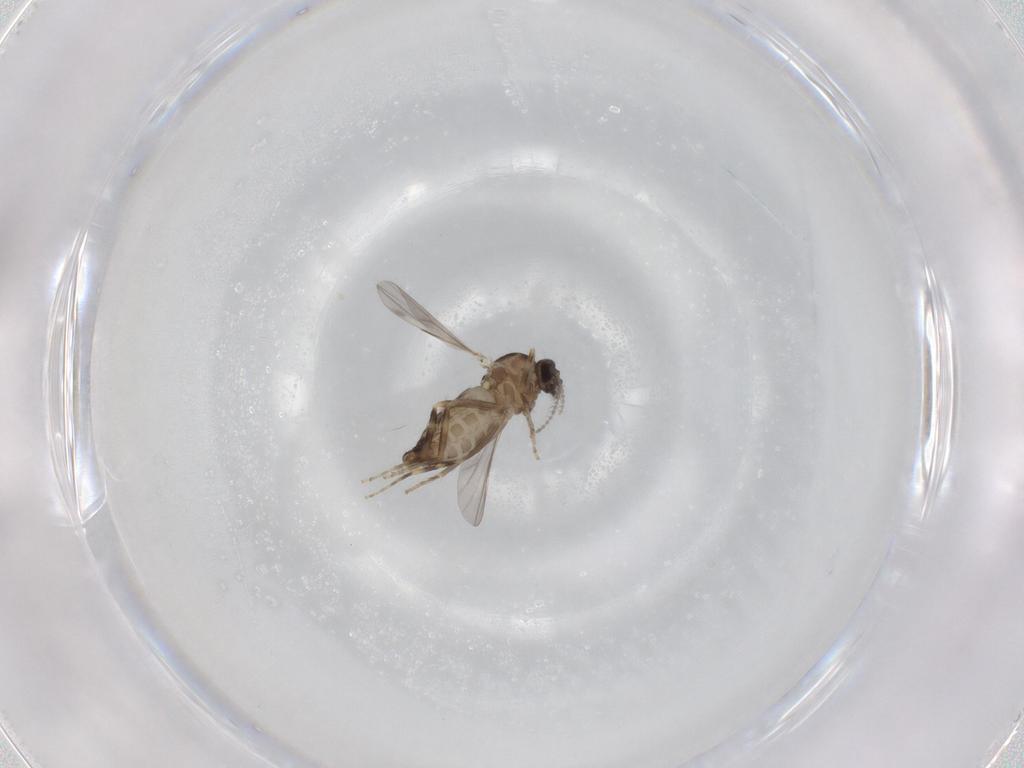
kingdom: Animalia
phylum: Arthropoda
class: Insecta
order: Diptera
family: Ceratopogonidae
